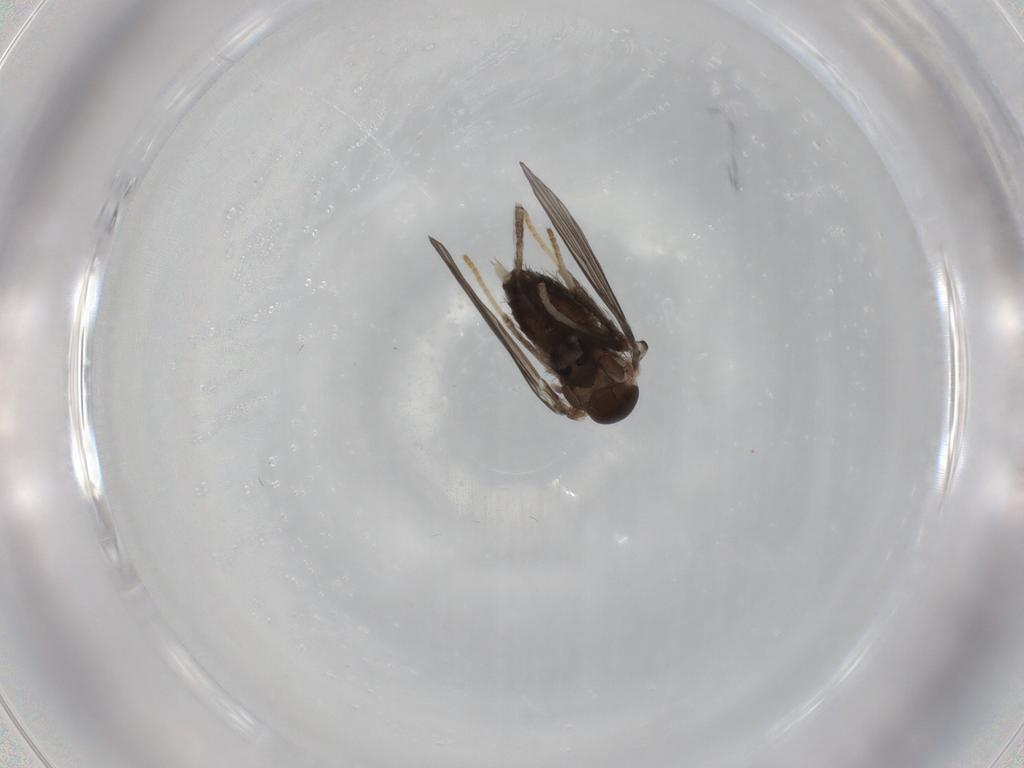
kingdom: Animalia
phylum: Arthropoda
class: Insecta
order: Diptera
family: Psychodidae
